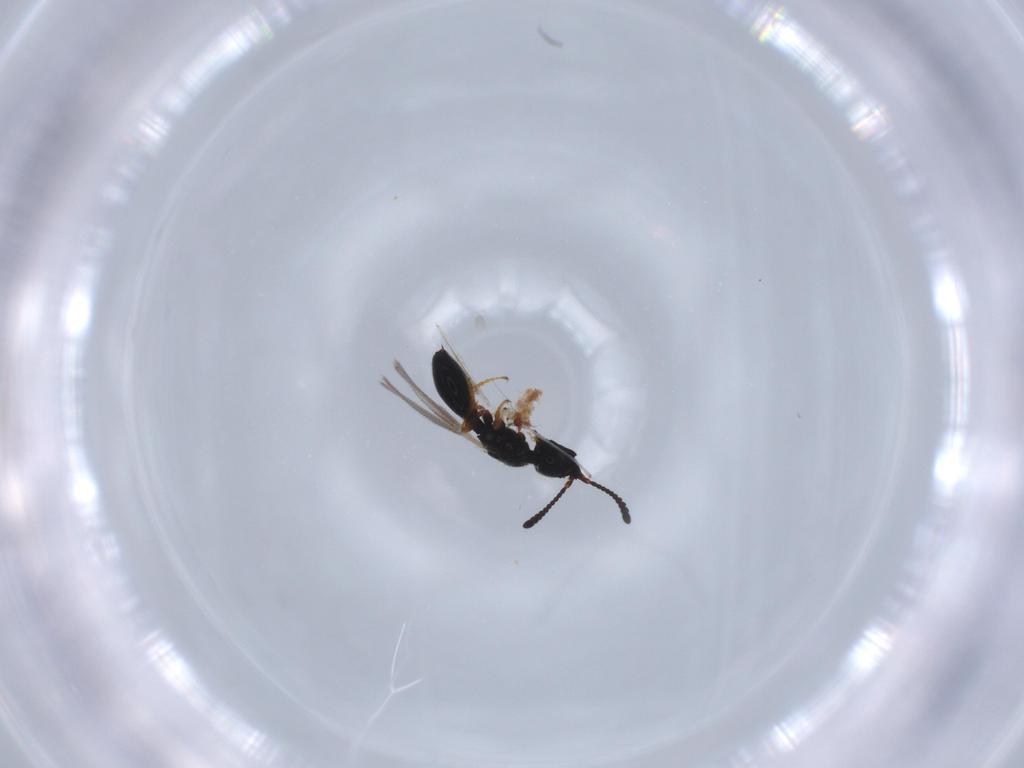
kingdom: Animalia
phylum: Arthropoda
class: Insecta
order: Hymenoptera
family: Diapriidae
